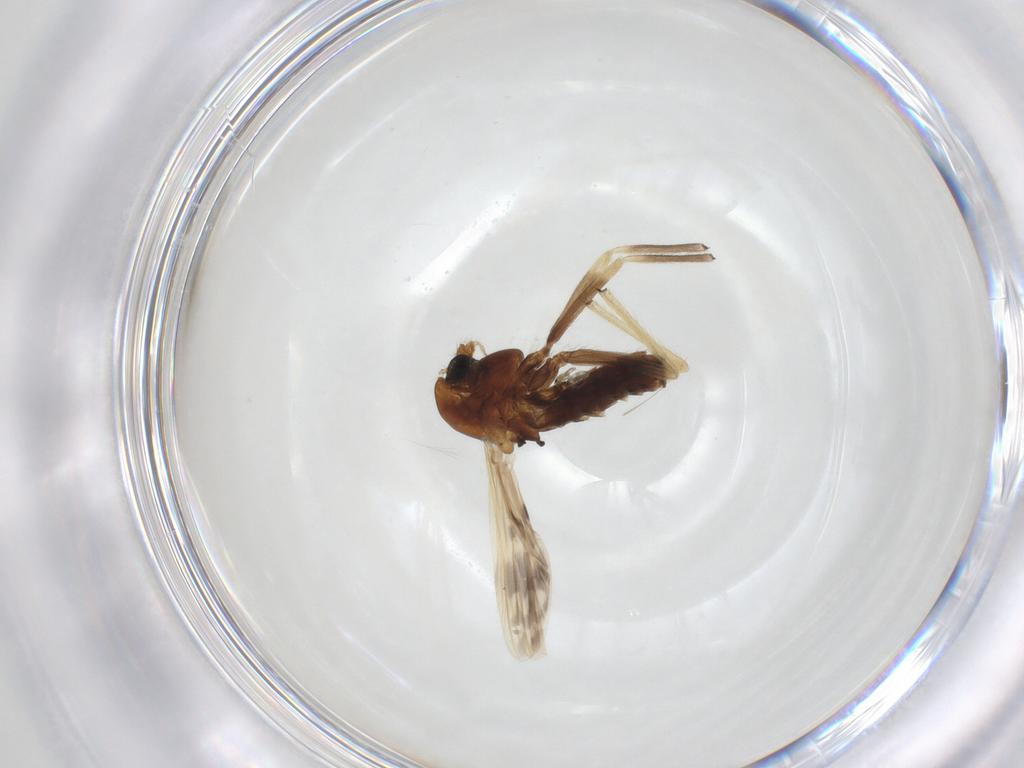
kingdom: Animalia
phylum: Arthropoda
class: Insecta
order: Diptera
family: Chironomidae
